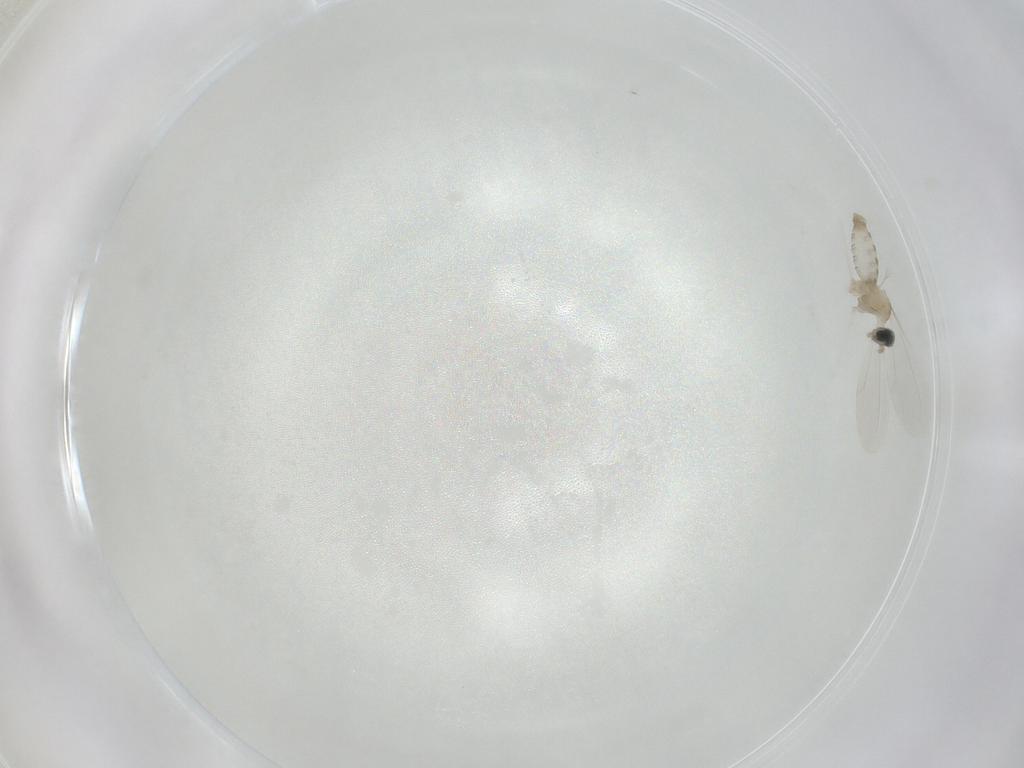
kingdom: Animalia
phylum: Arthropoda
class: Insecta
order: Diptera
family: Cecidomyiidae
